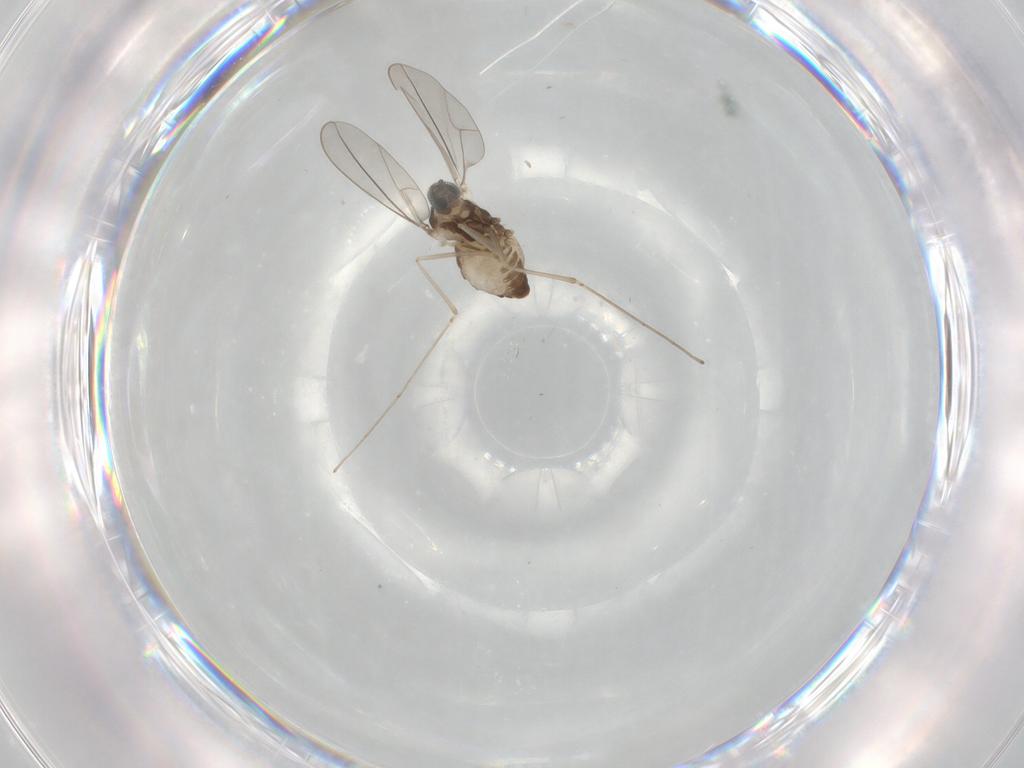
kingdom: Animalia
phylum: Arthropoda
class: Insecta
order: Diptera
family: Cecidomyiidae
